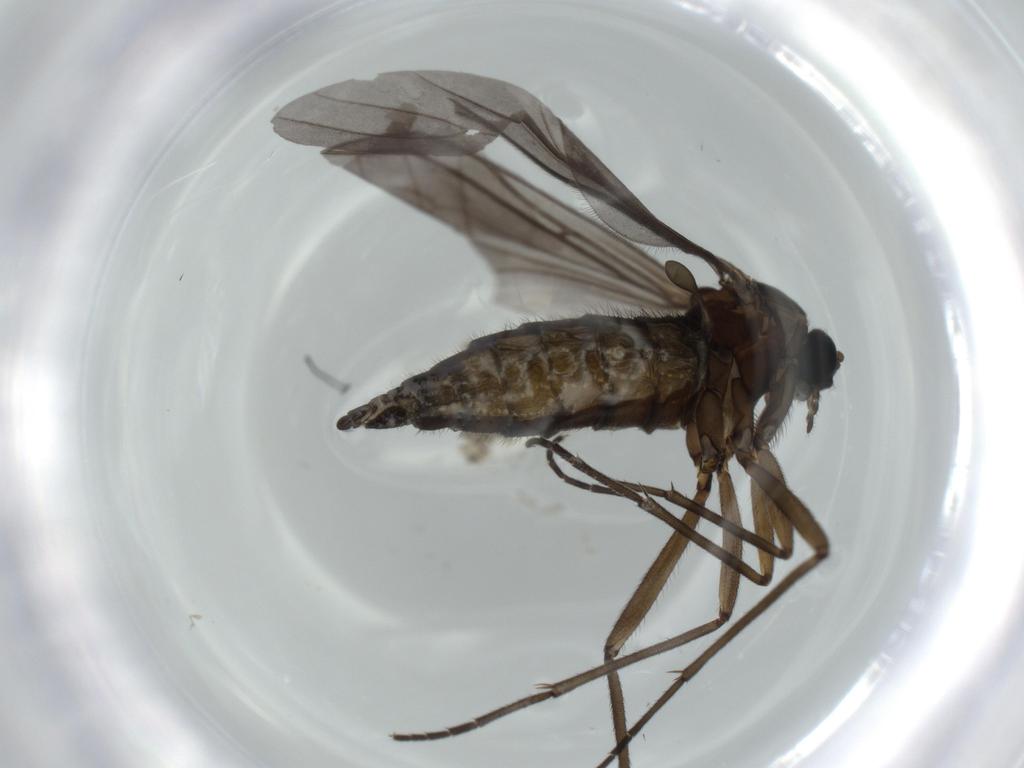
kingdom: Animalia
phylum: Arthropoda
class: Insecta
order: Diptera
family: Sciaridae
